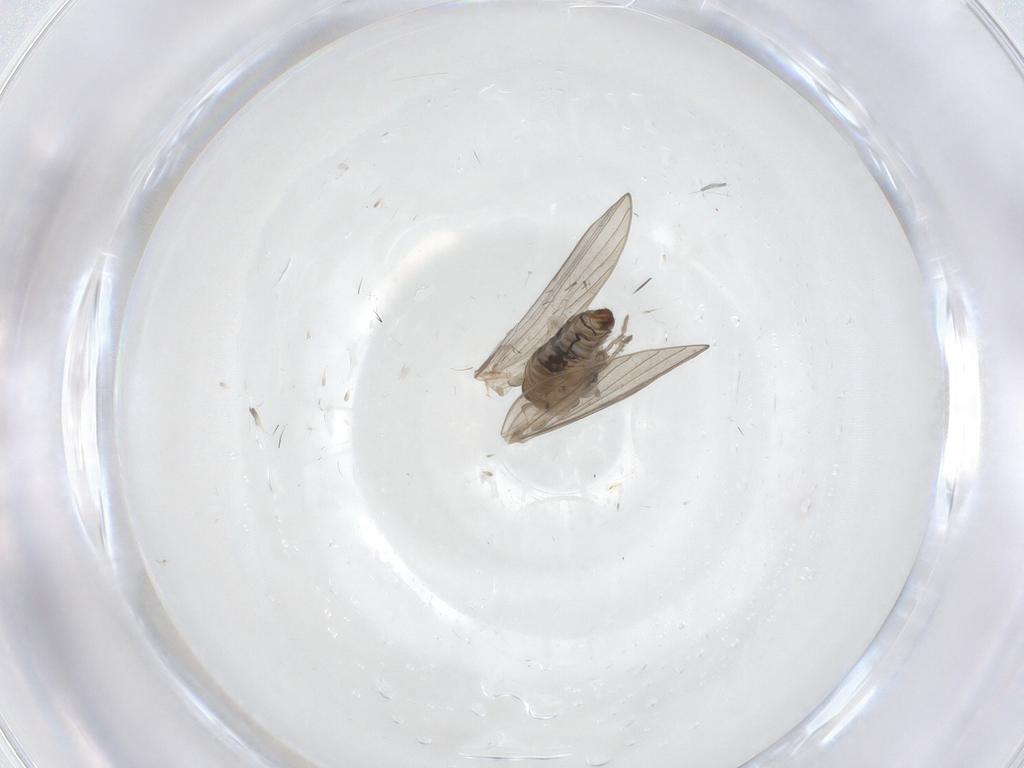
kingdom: Animalia
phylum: Arthropoda
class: Insecta
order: Diptera
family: Psychodidae
